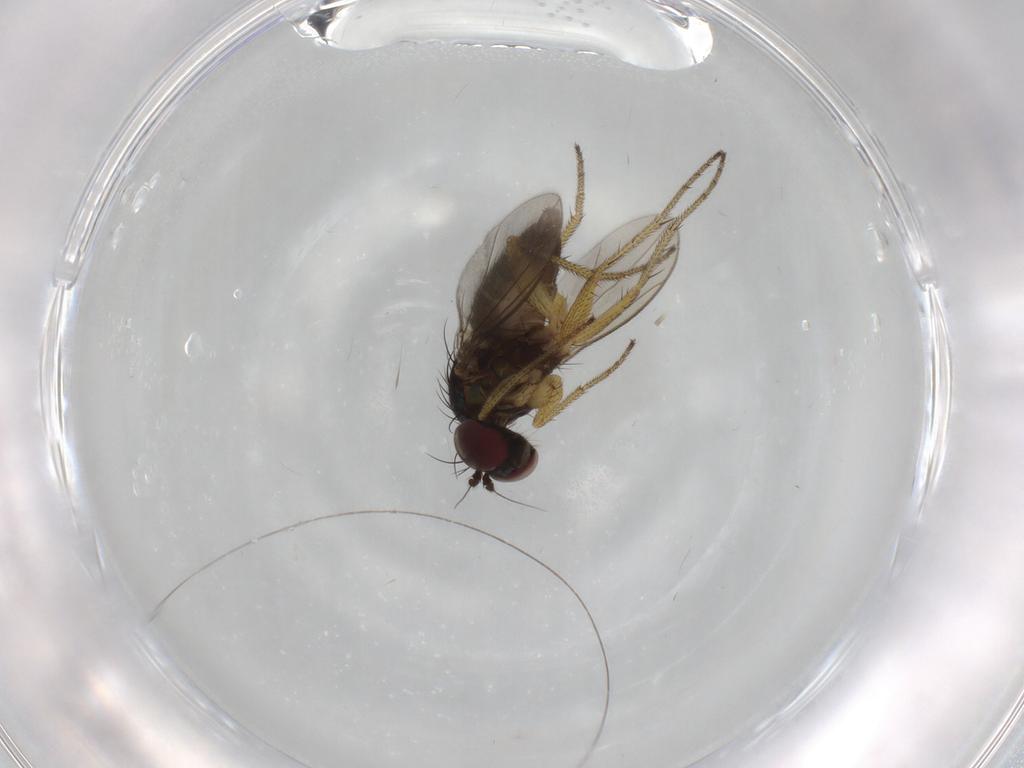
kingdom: Animalia
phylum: Arthropoda
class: Insecta
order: Diptera
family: Dolichopodidae
